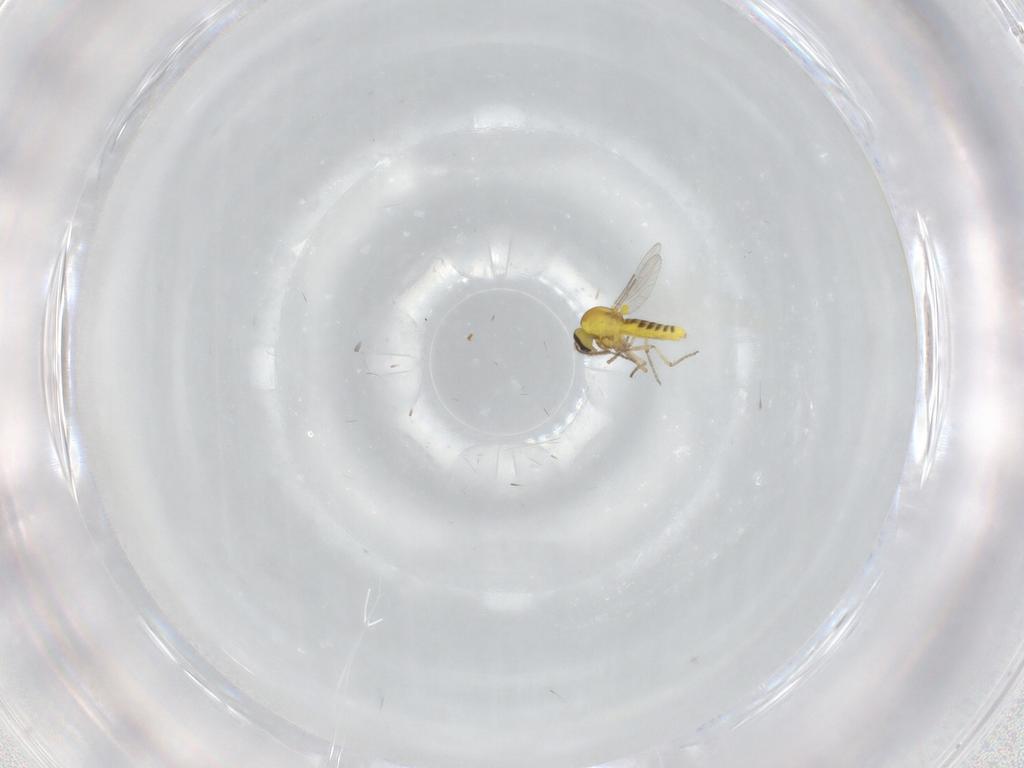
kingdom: Animalia
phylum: Arthropoda
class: Insecta
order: Diptera
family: Ceratopogonidae
